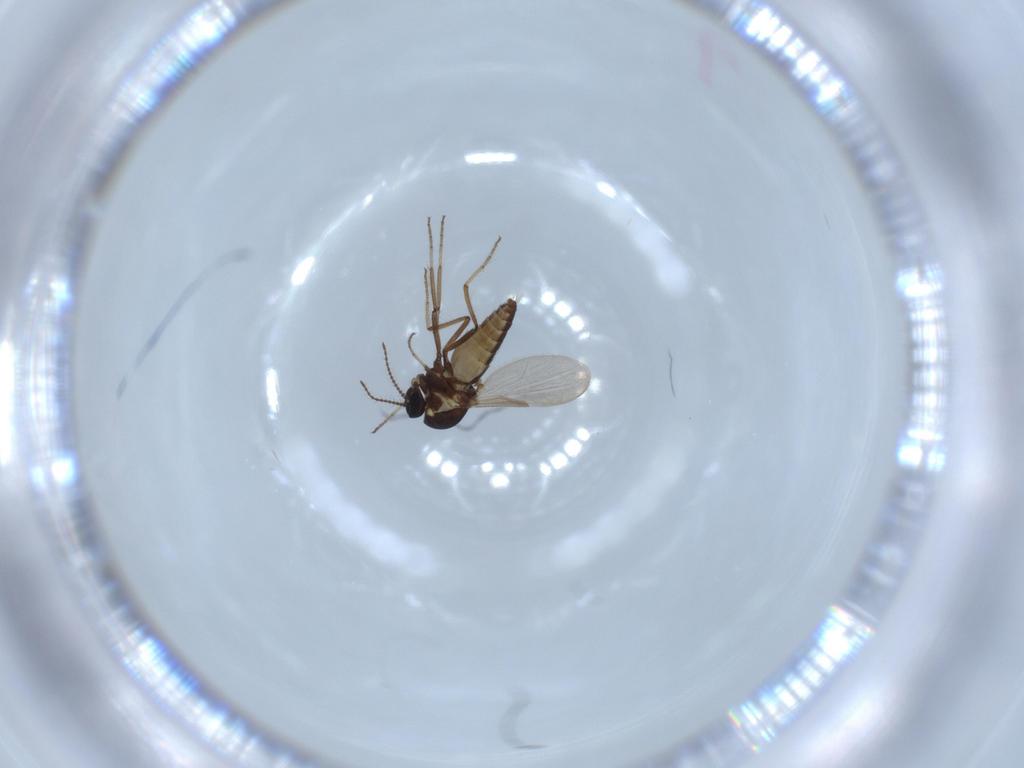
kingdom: Animalia
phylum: Arthropoda
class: Insecta
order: Diptera
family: Ceratopogonidae
